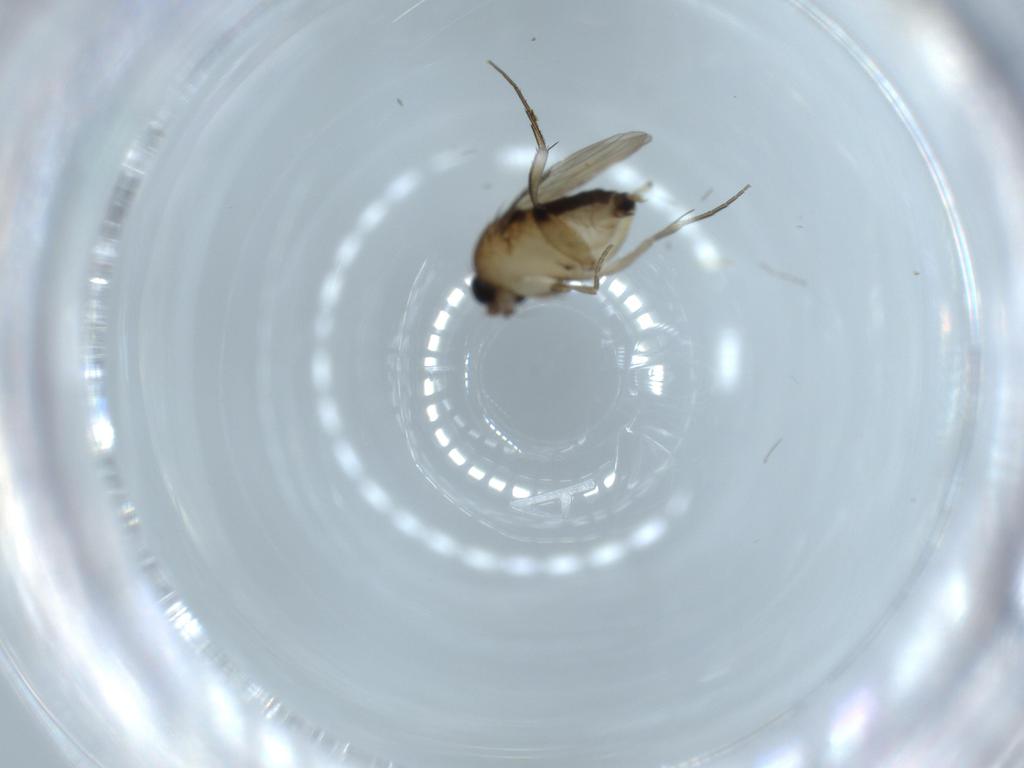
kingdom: Animalia
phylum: Arthropoda
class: Insecta
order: Diptera
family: Phoridae
